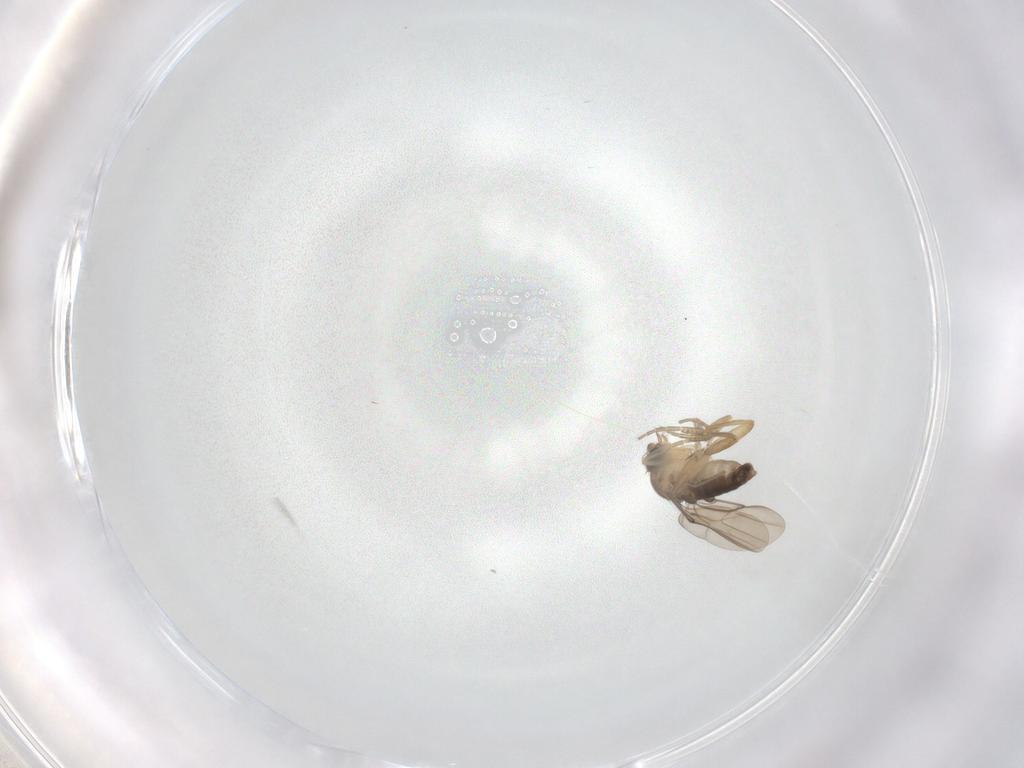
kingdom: Animalia
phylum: Arthropoda
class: Insecta
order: Diptera
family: Phoridae
